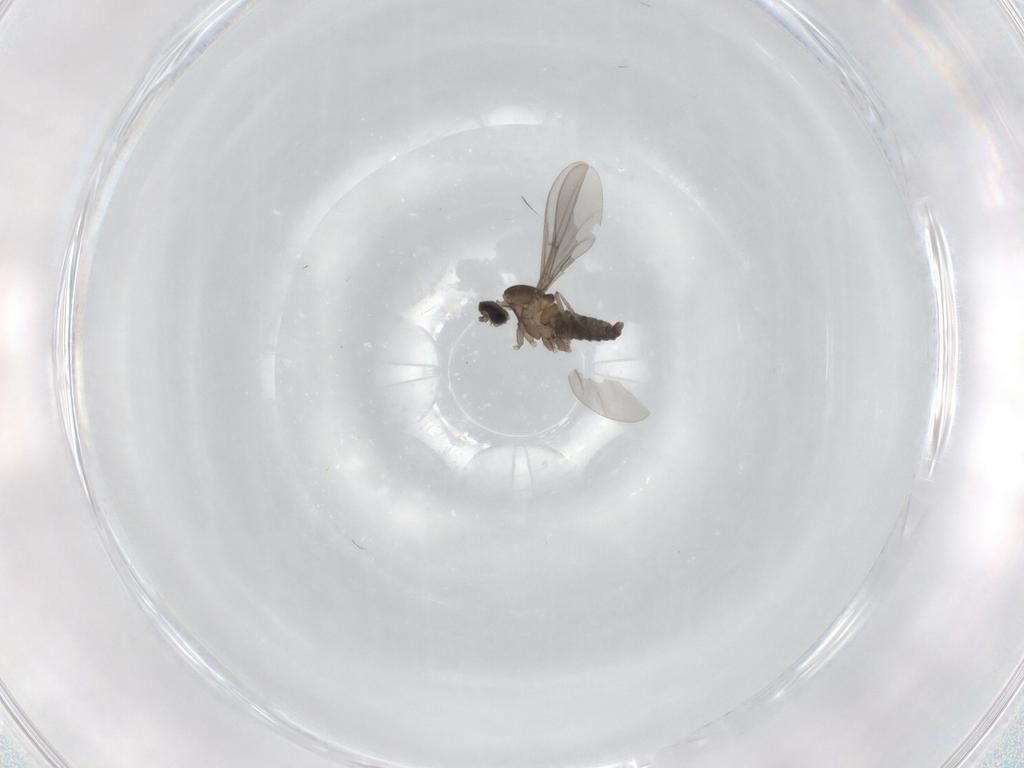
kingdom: Animalia
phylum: Arthropoda
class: Insecta
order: Diptera
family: Cecidomyiidae
